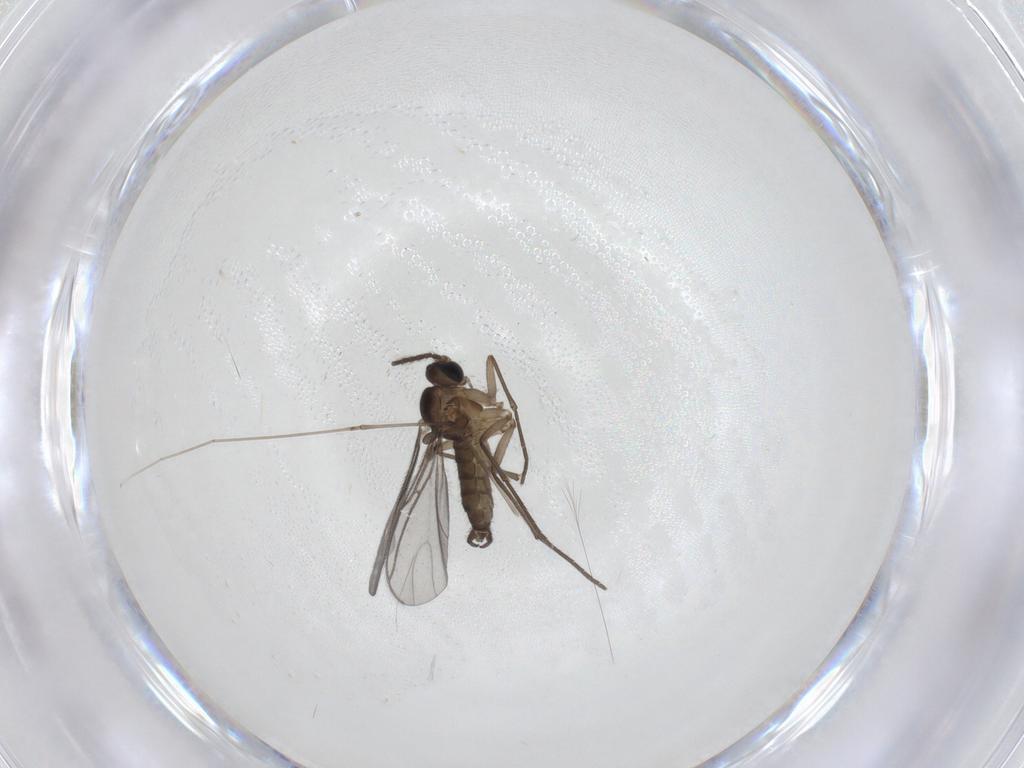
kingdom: Animalia
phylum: Arthropoda
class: Insecta
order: Diptera
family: Sciaridae
